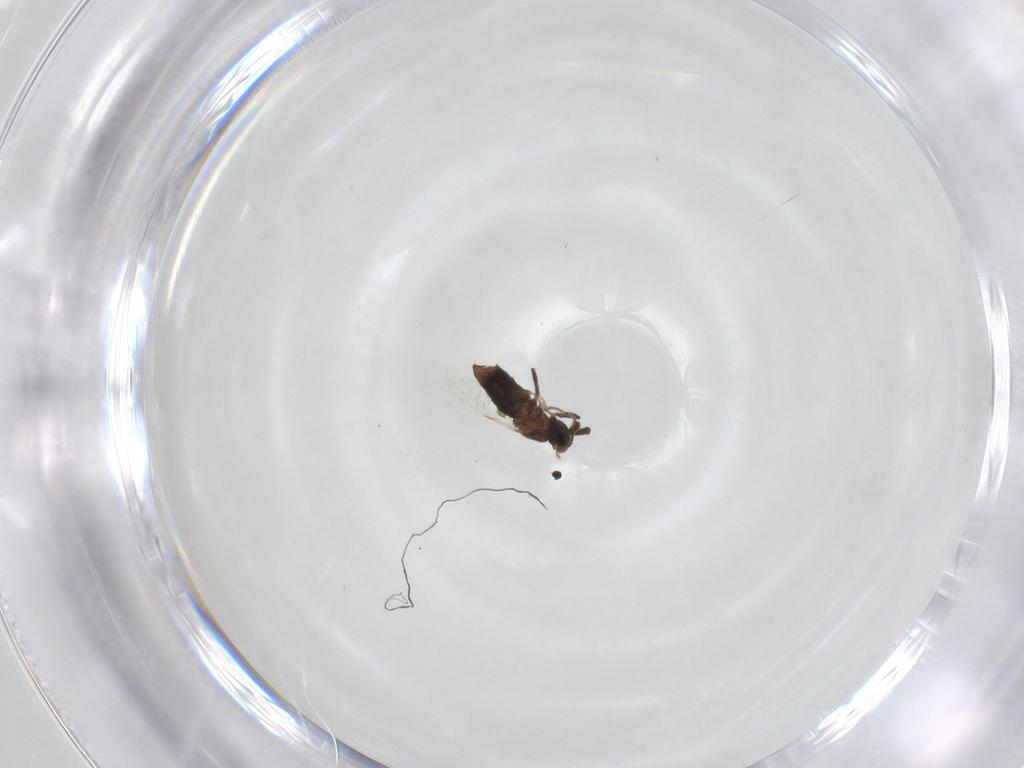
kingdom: Animalia
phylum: Arthropoda
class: Insecta
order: Diptera
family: Scatopsidae
